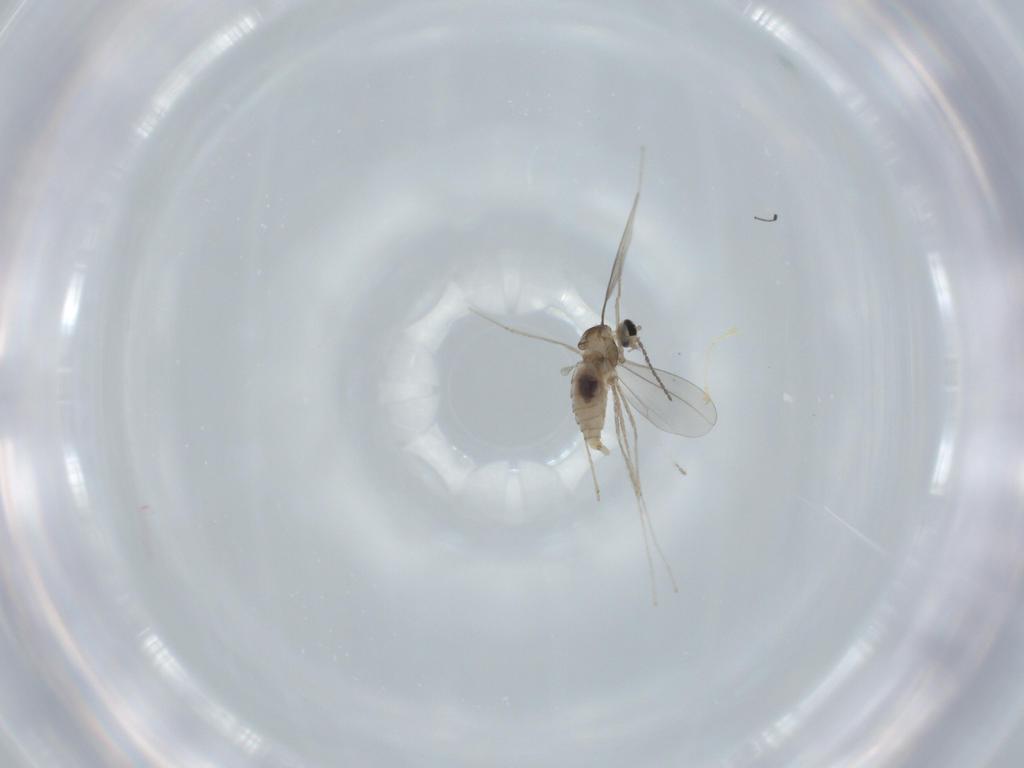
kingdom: Animalia
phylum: Arthropoda
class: Insecta
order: Diptera
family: Cecidomyiidae
